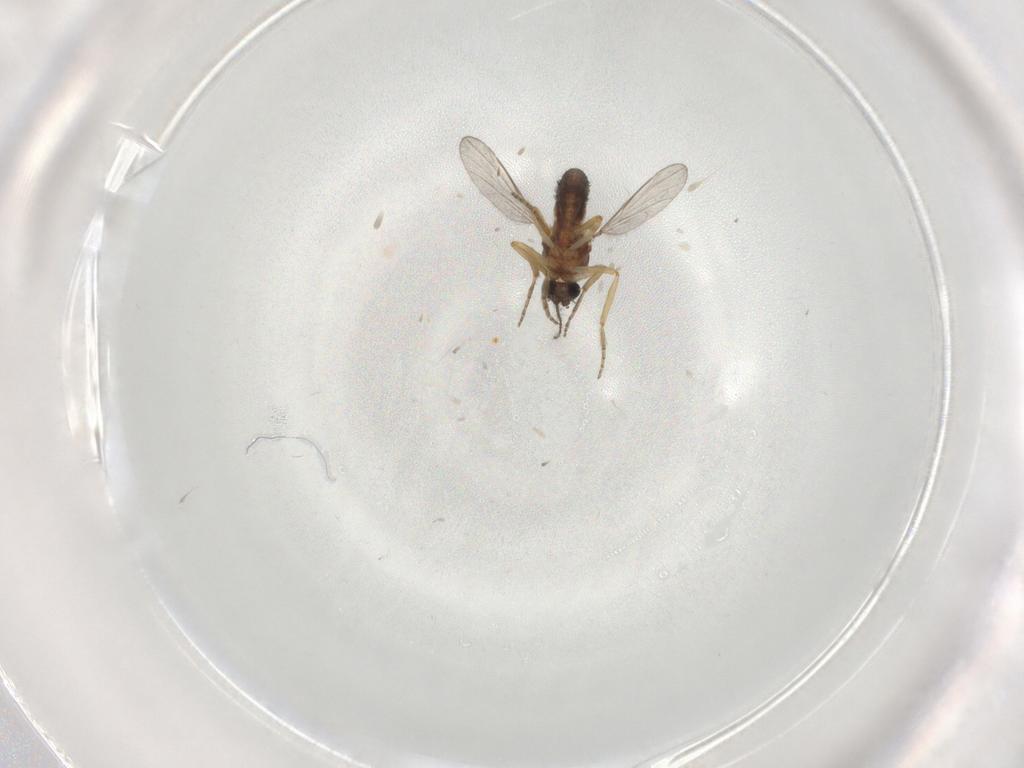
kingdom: Animalia
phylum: Arthropoda
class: Insecta
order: Diptera
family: Ceratopogonidae
